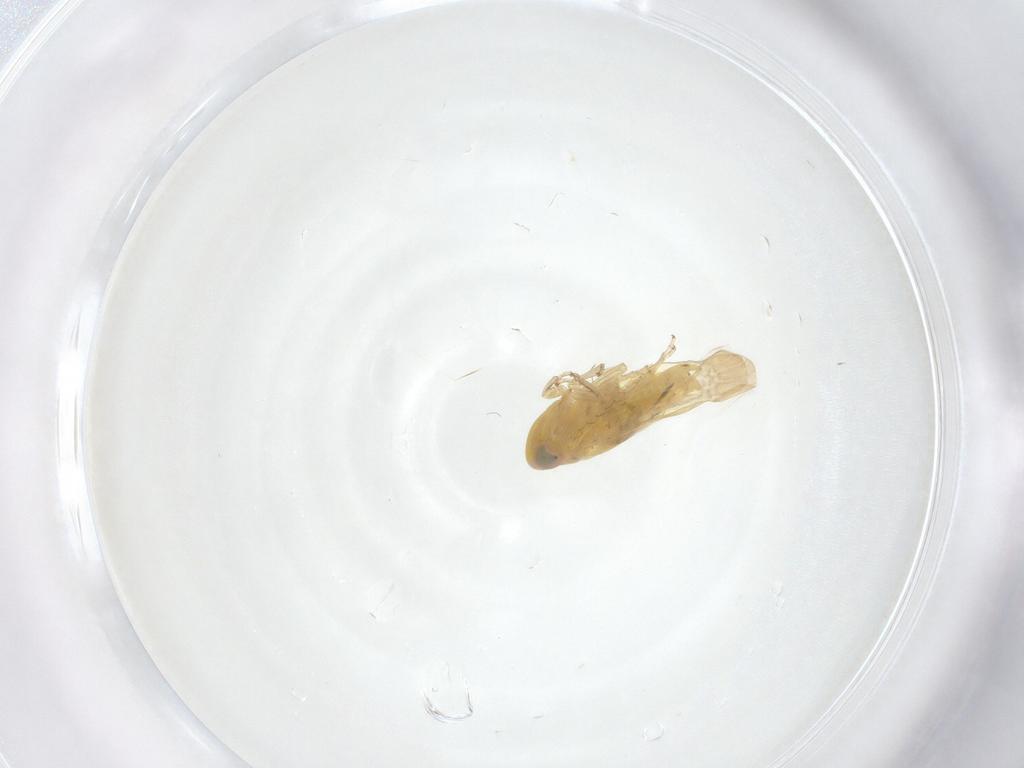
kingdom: Animalia
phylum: Arthropoda
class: Insecta
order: Hemiptera
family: Cicadellidae
